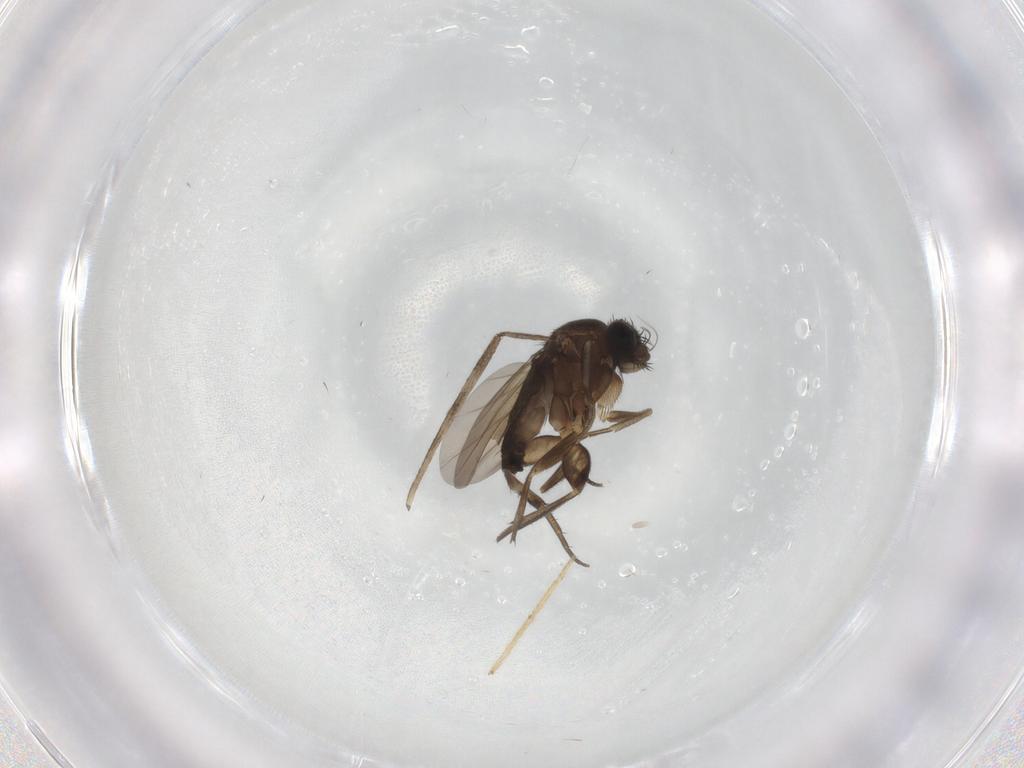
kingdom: Animalia
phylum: Arthropoda
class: Insecta
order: Diptera
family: Phoridae
